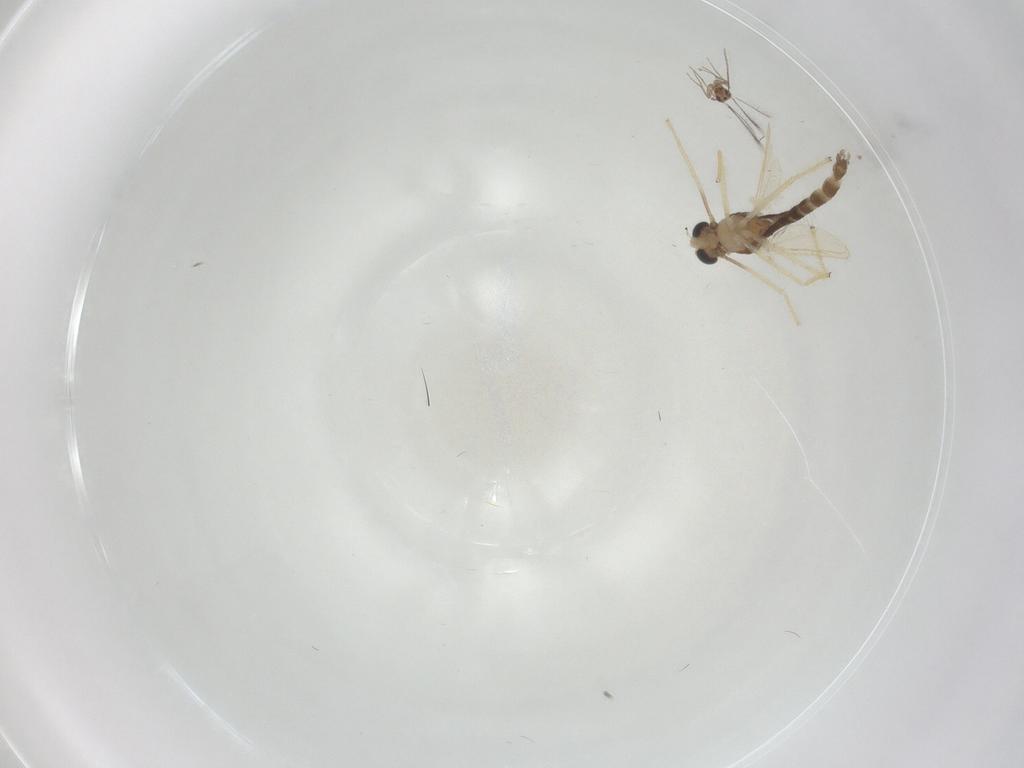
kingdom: Animalia
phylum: Arthropoda
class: Insecta
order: Diptera
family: Chironomidae
